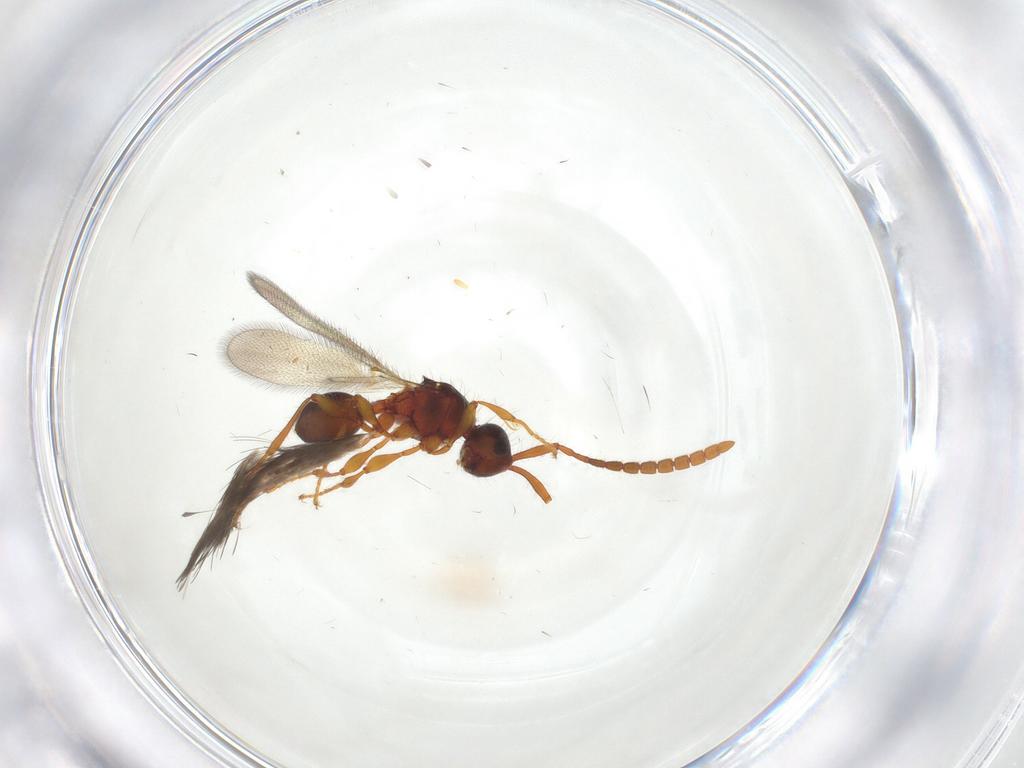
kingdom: Animalia
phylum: Arthropoda
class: Insecta
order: Hymenoptera
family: Diapriidae
